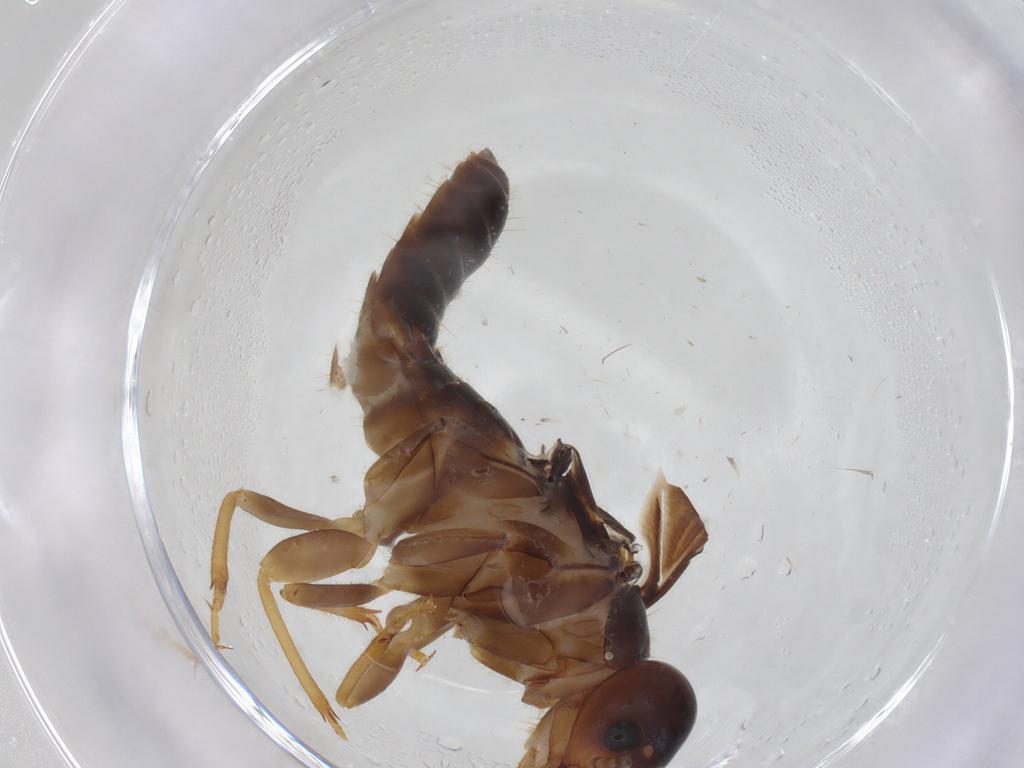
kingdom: Animalia
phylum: Arthropoda
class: Insecta
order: Blattodea
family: Kalotermitidae
